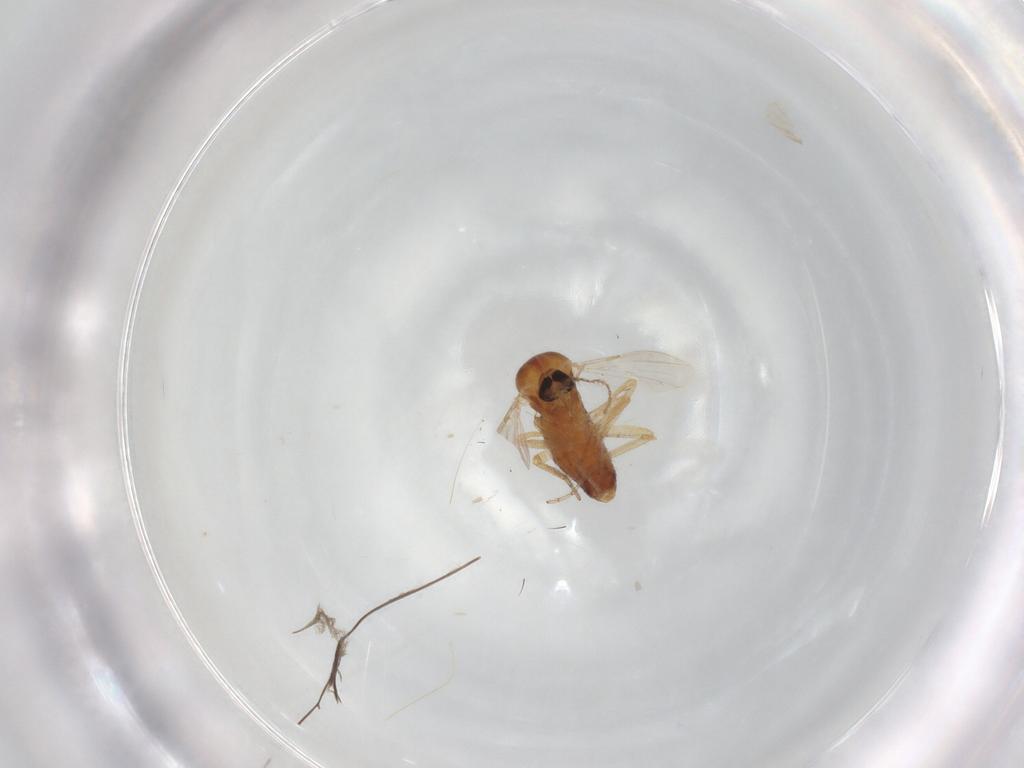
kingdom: Animalia
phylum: Arthropoda
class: Insecta
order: Diptera
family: Ceratopogonidae
